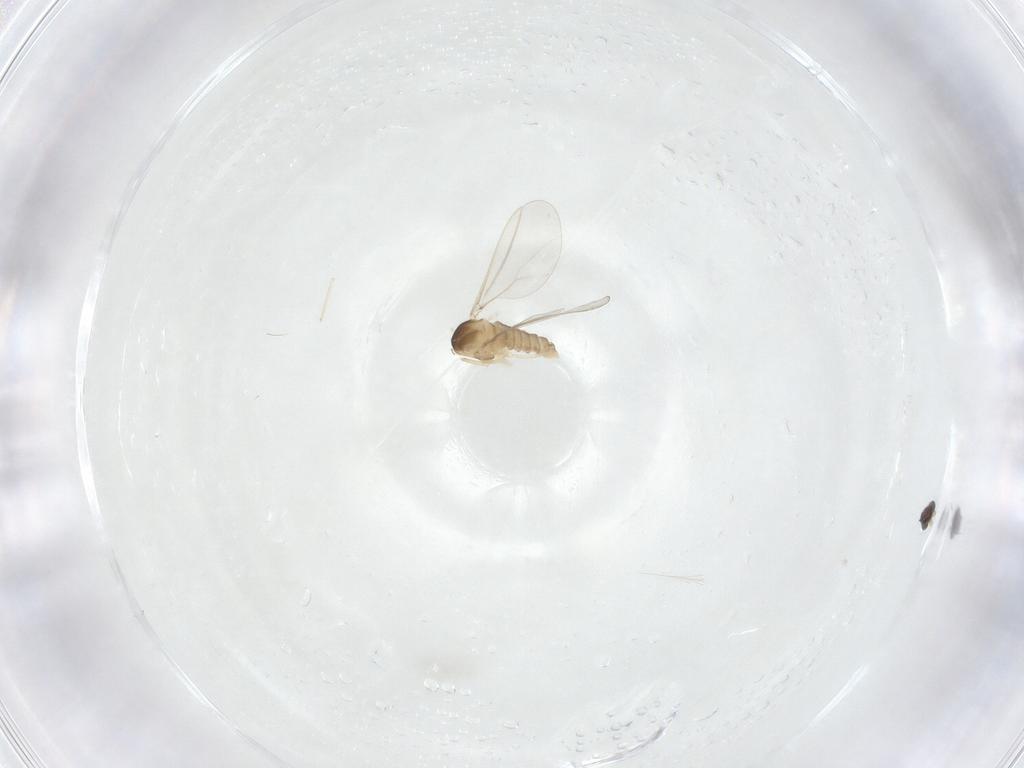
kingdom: Animalia
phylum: Arthropoda
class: Insecta
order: Diptera
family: Cecidomyiidae
